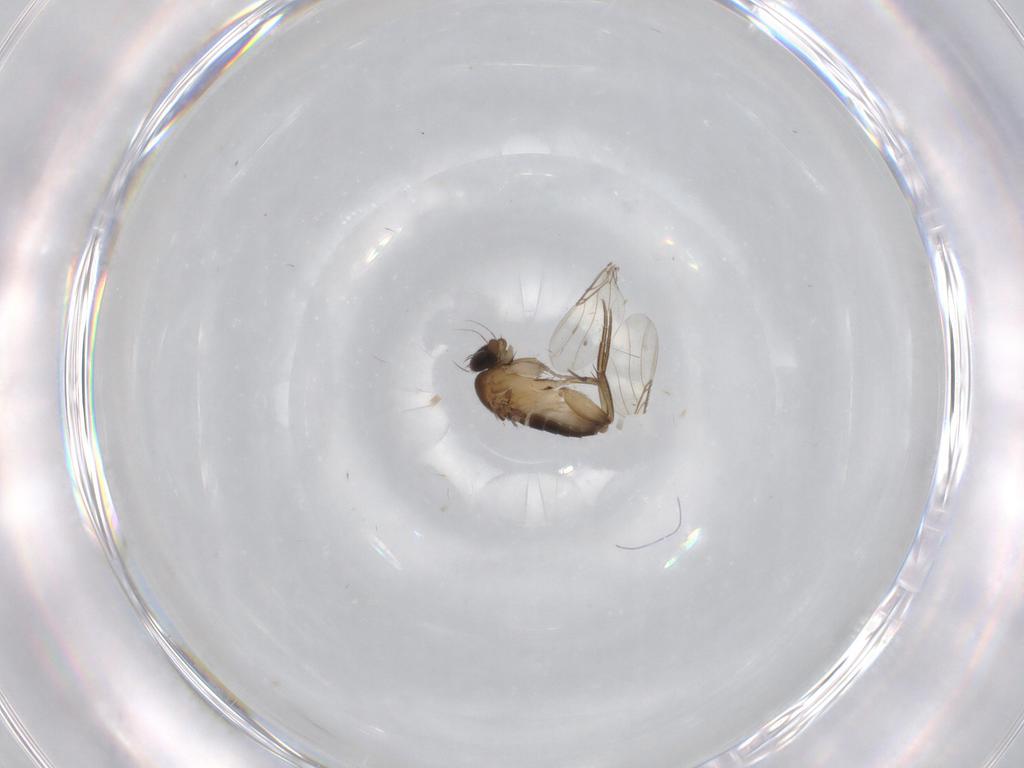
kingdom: Animalia
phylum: Arthropoda
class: Insecta
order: Diptera
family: Phoridae
